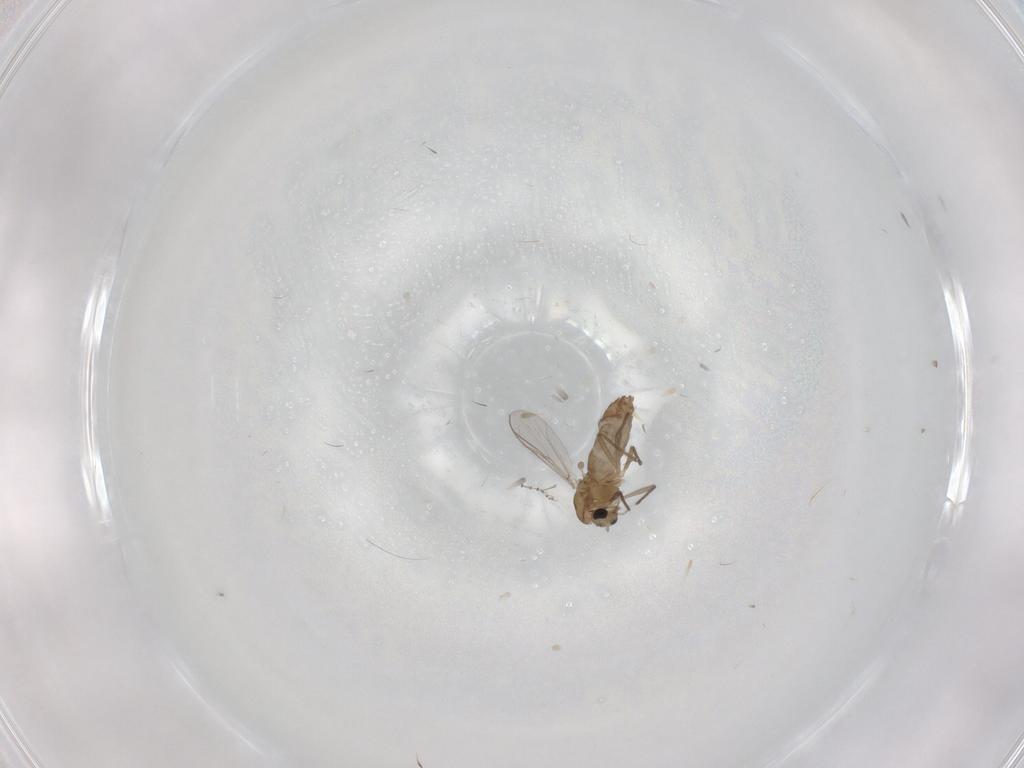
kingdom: Animalia
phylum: Arthropoda
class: Insecta
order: Diptera
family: Chironomidae
